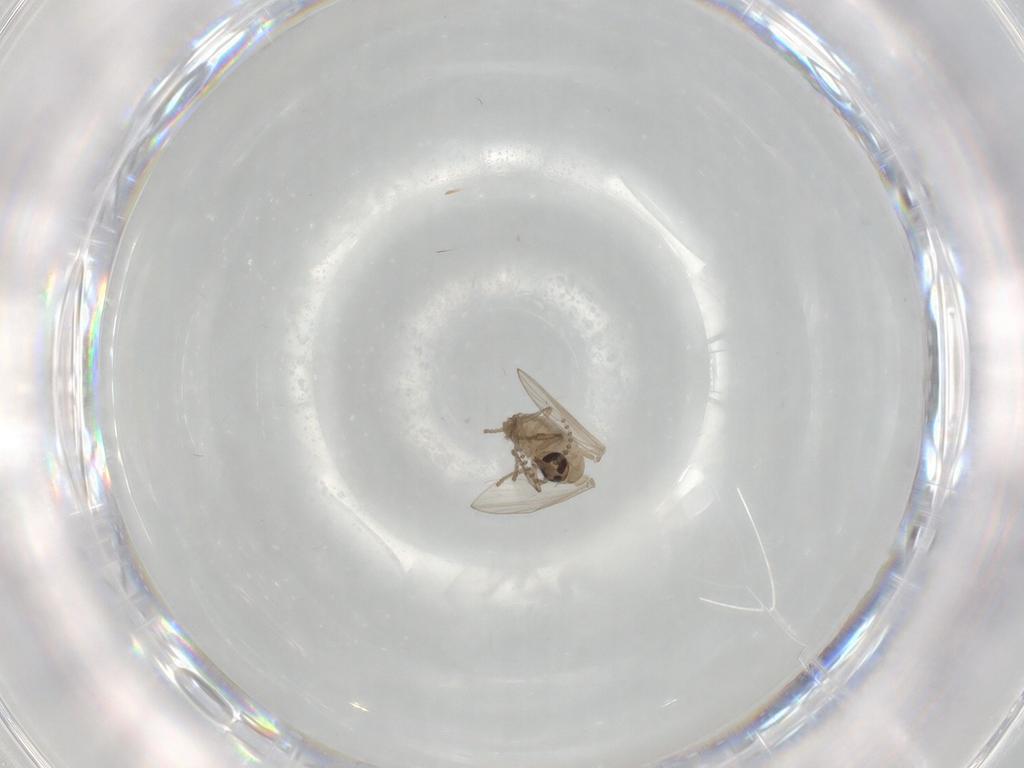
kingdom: Animalia
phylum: Arthropoda
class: Insecta
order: Diptera
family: Psychodidae
